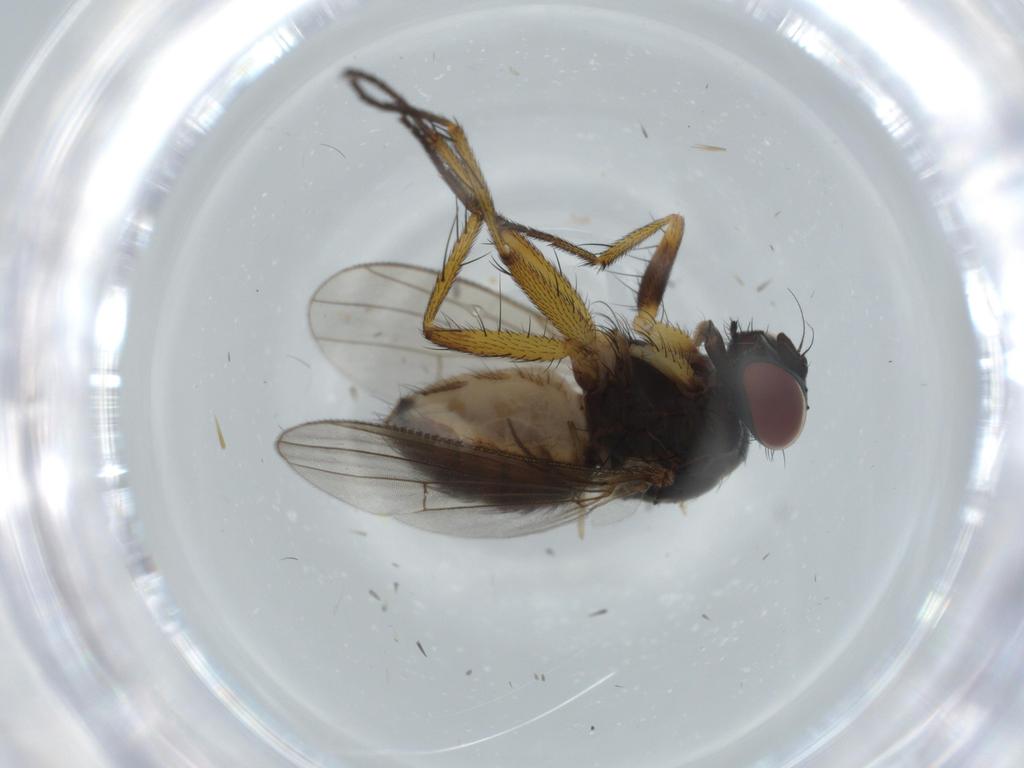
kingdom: Animalia
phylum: Arthropoda
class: Insecta
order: Diptera
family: Muscidae
